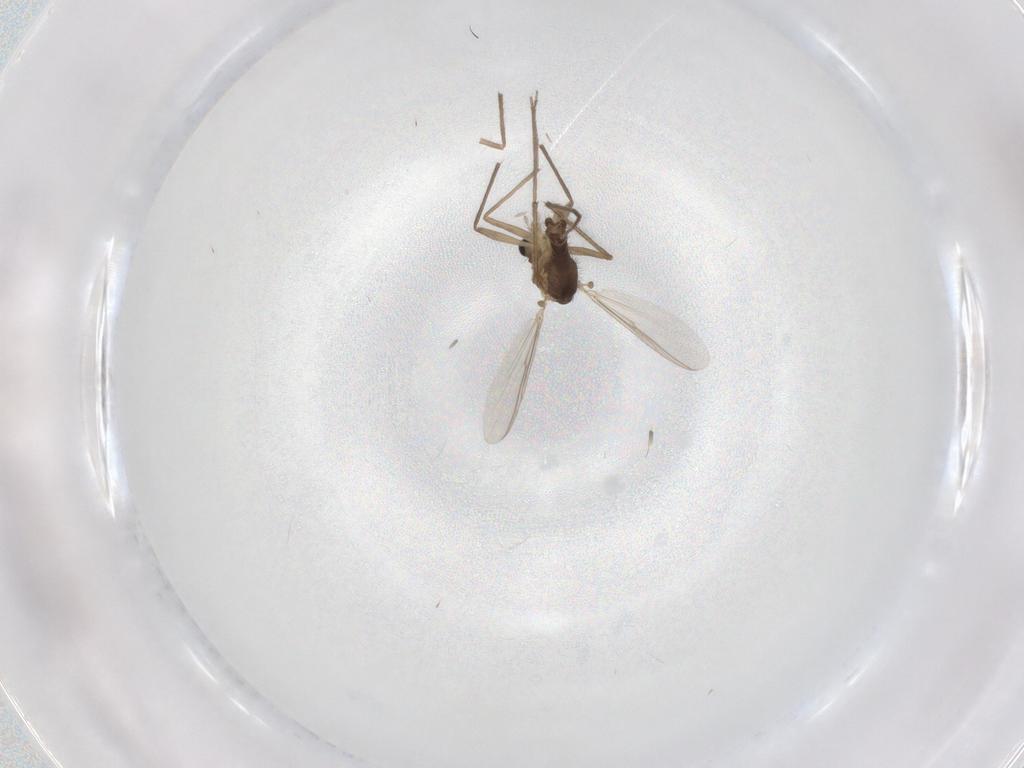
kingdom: Animalia
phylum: Arthropoda
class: Insecta
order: Diptera
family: Chironomidae
